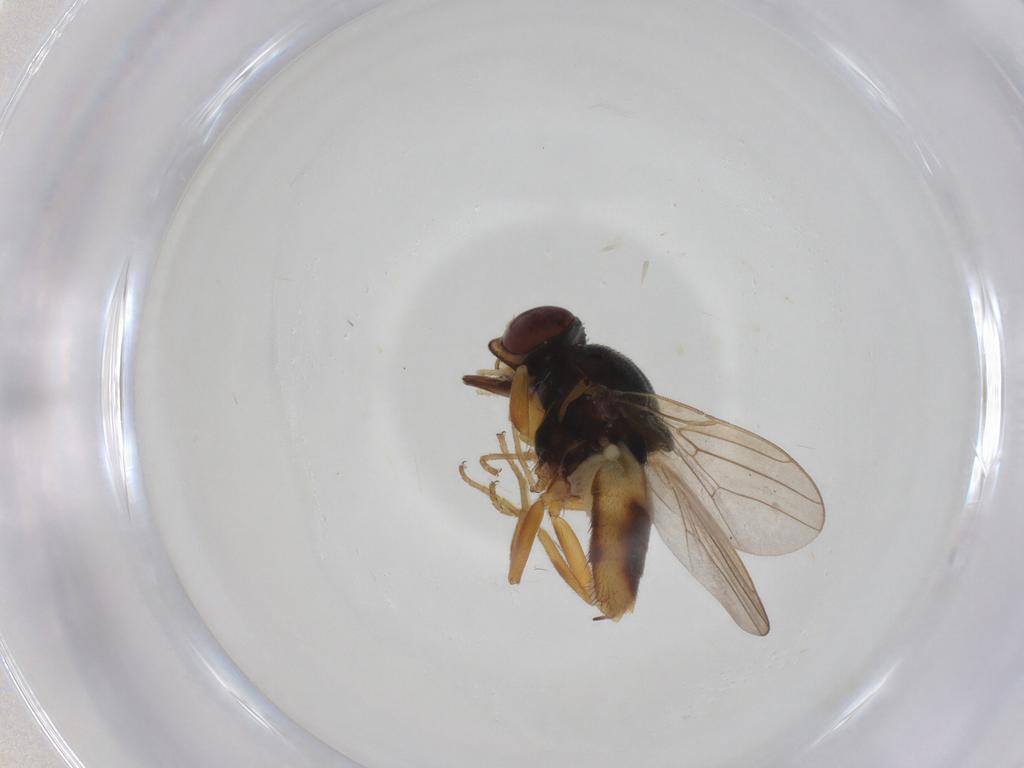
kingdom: Animalia
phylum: Arthropoda
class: Insecta
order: Diptera
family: Chloropidae
